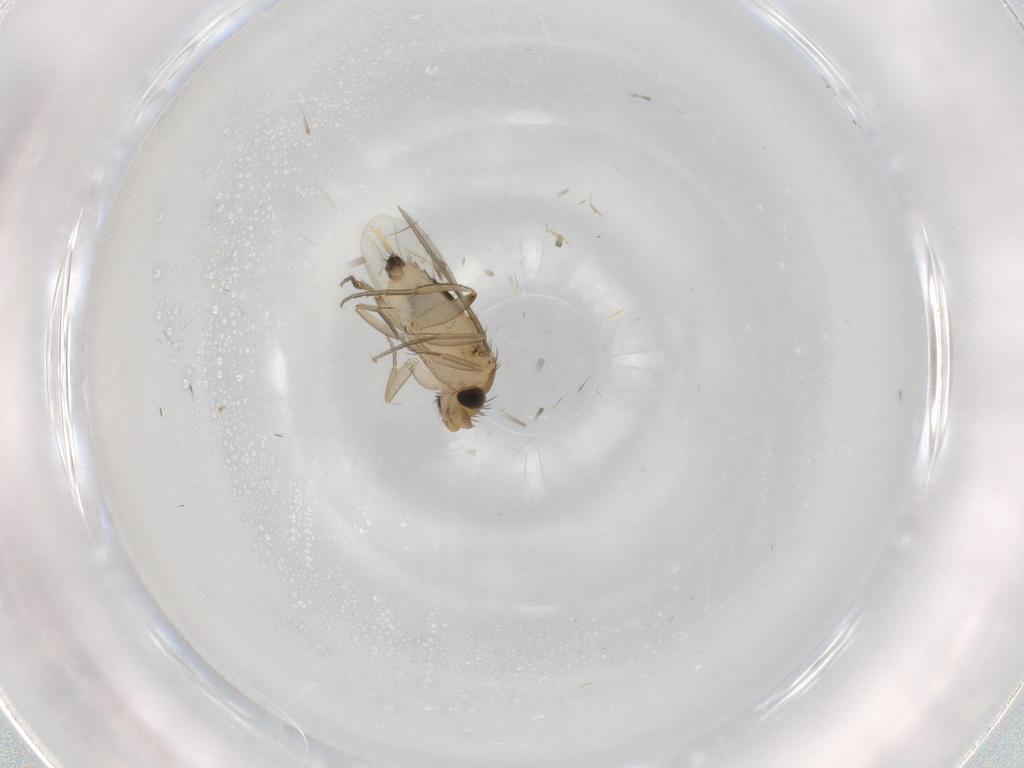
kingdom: Animalia
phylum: Arthropoda
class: Insecta
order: Diptera
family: Phoridae
